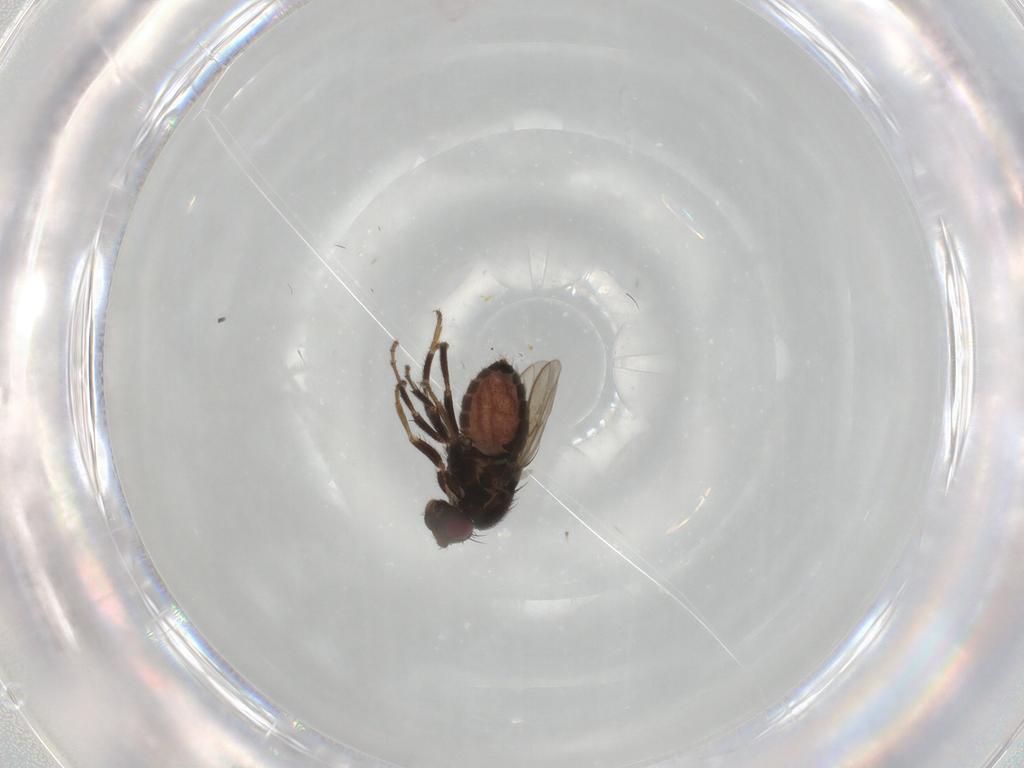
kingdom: Animalia
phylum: Arthropoda
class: Insecta
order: Diptera
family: Sphaeroceridae
